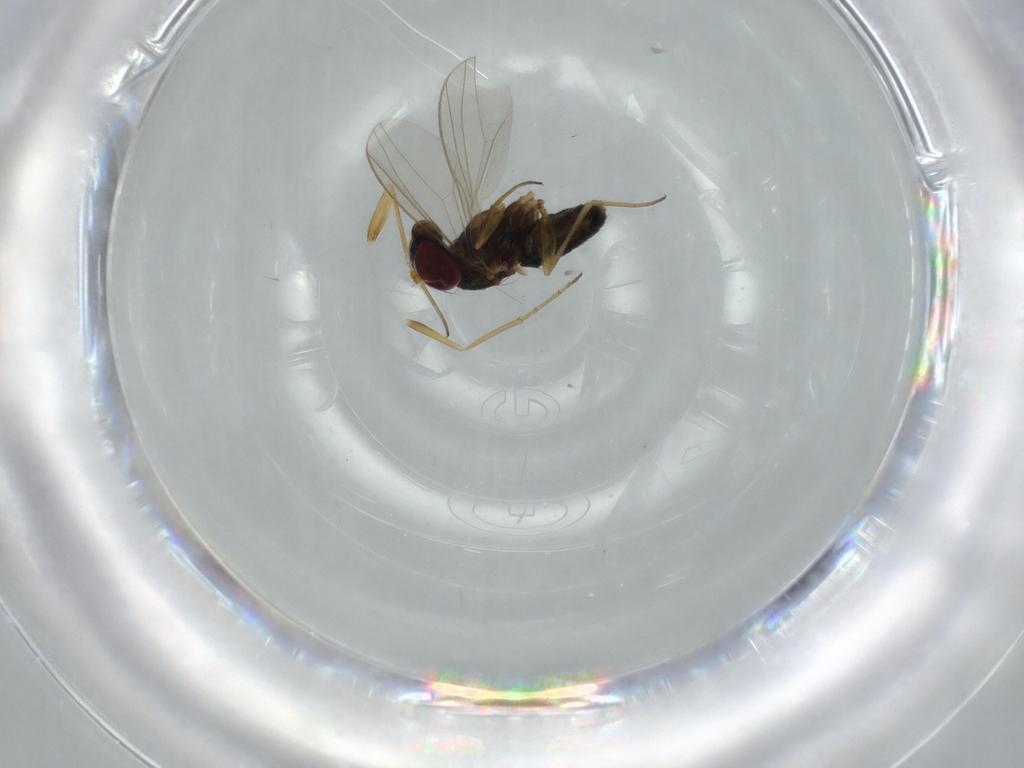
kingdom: Animalia
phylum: Arthropoda
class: Insecta
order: Diptera
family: Dolichopodidae
